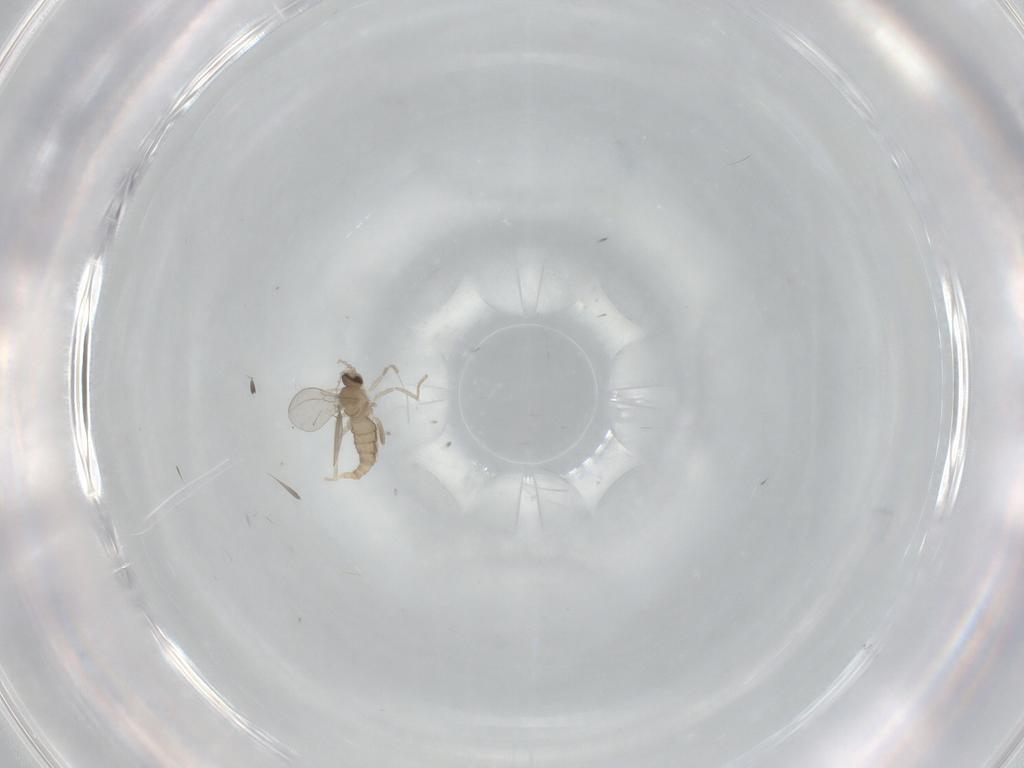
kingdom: Animalia
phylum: Arthropoda
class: Insecta
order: Diptera
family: Cecidomyiidae
